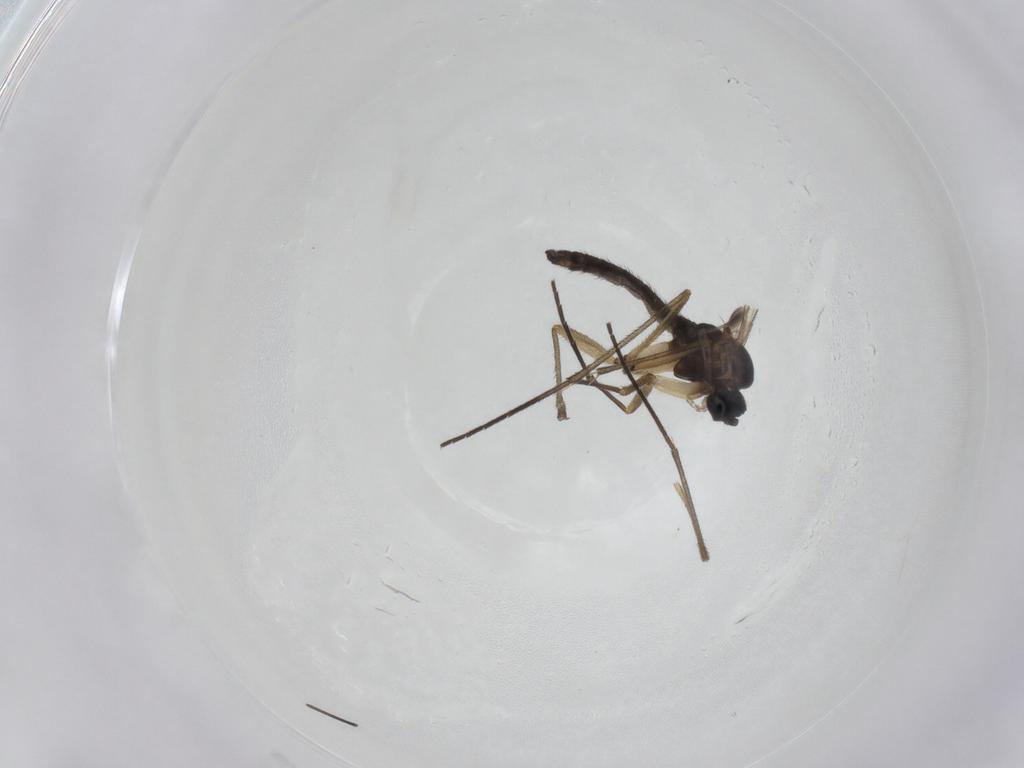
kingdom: Animalia
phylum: Arthropoda
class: Insecta
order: Diptera
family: Sciaridae
